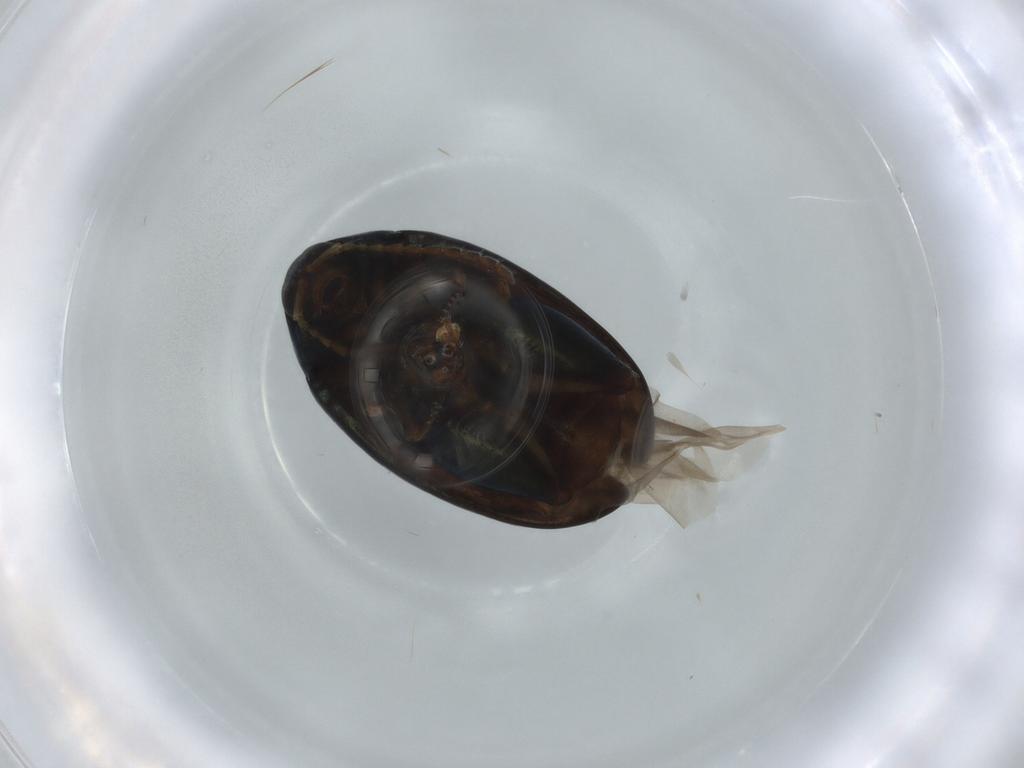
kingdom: Animalia
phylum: Arthropoda
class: Insecta
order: Coleoptera
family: Chrysomelidae
